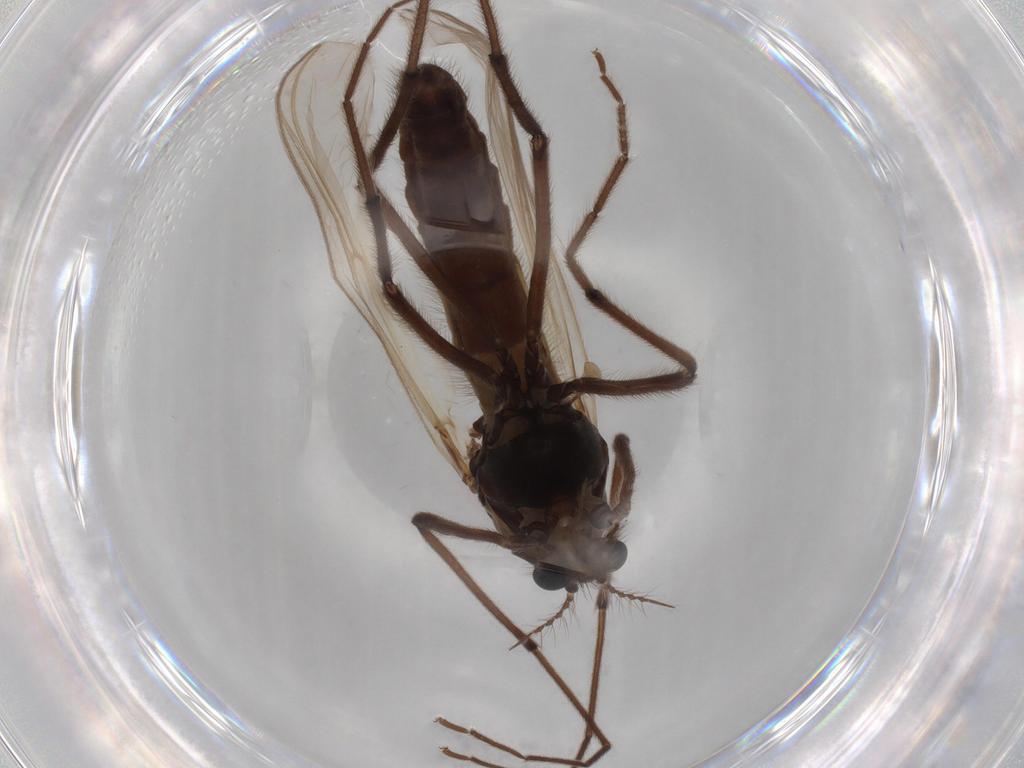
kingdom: Animalia
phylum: Arthropoda
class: Insecta
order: Diptera
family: Chironomidae
